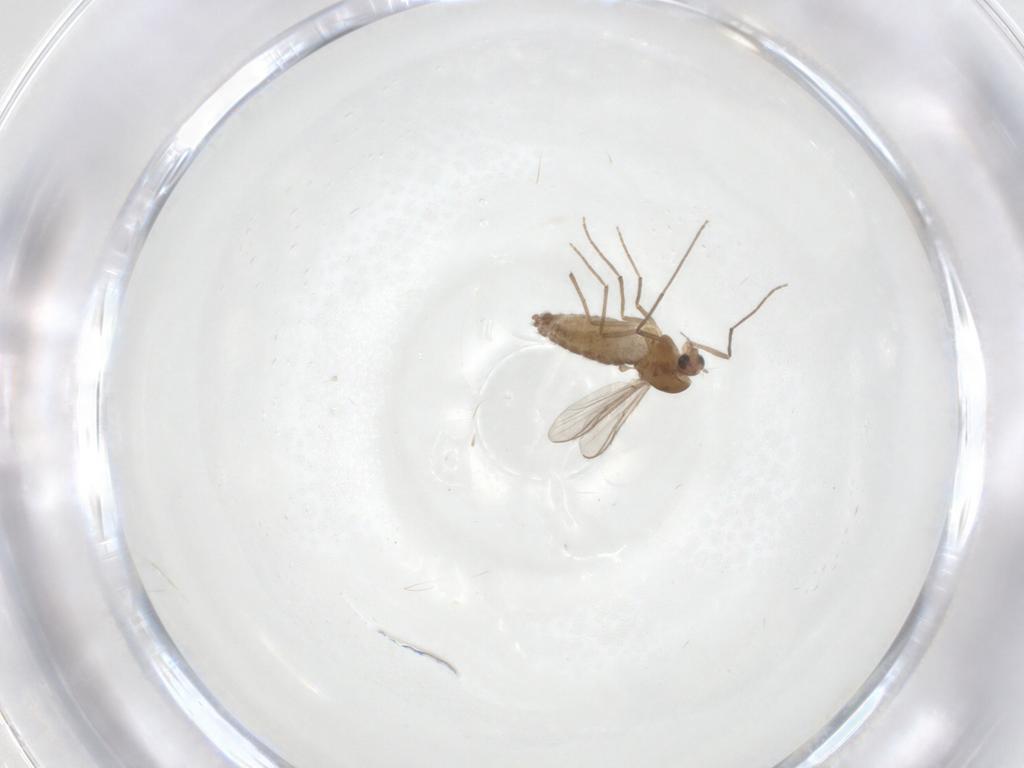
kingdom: Animalia
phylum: Arthropoda
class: Insecta
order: Diptera
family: Chironomidae
